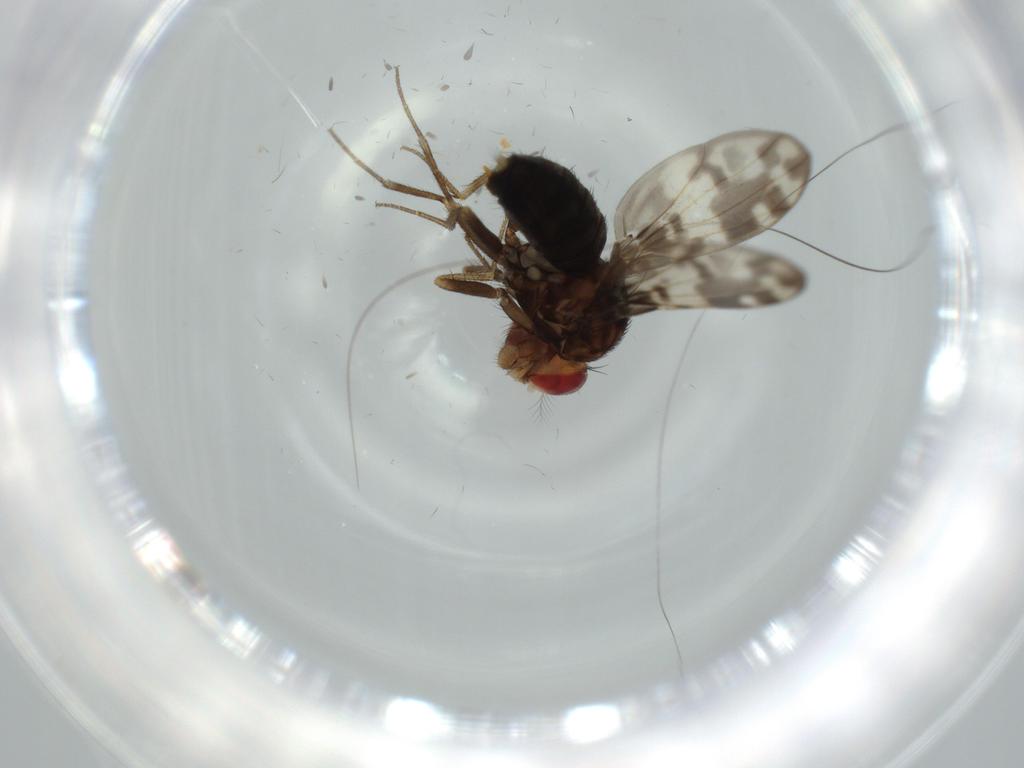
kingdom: Animalia
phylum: Arthropoda
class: Insecta
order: Diptera
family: Drosophilidae
